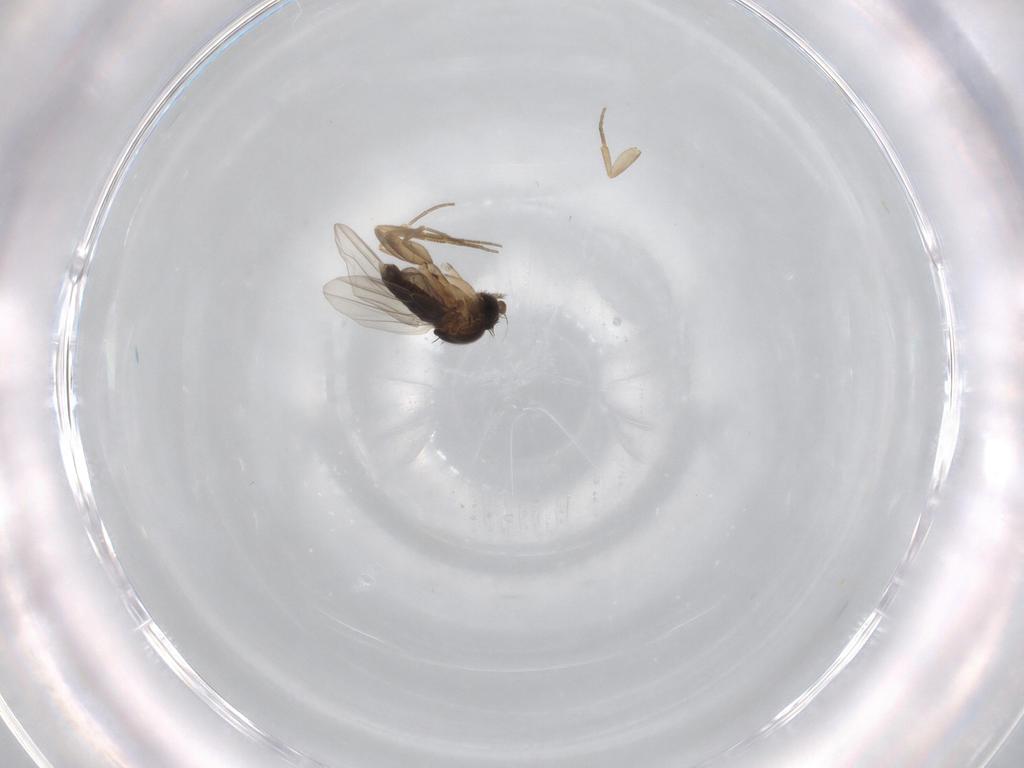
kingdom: Animalia
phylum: Arthropoda
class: Insecta
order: Diptera
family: Phoridae
